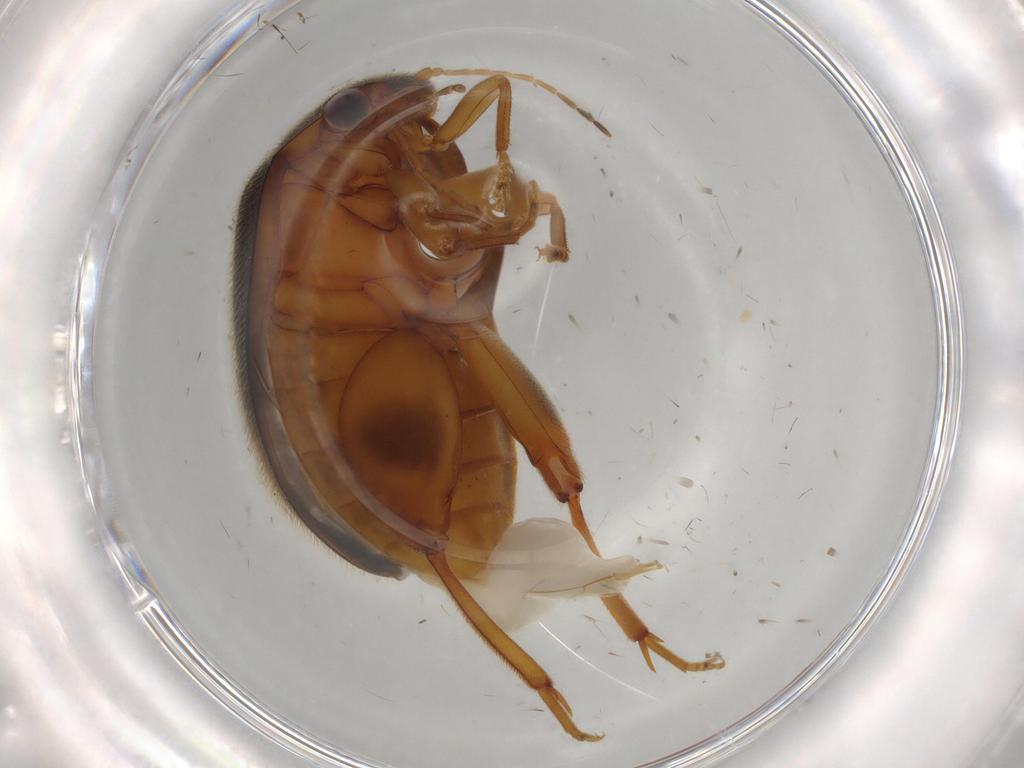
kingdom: Animalia
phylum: Arthropoda
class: Insecta
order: Coleoptera
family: Scirtidae
